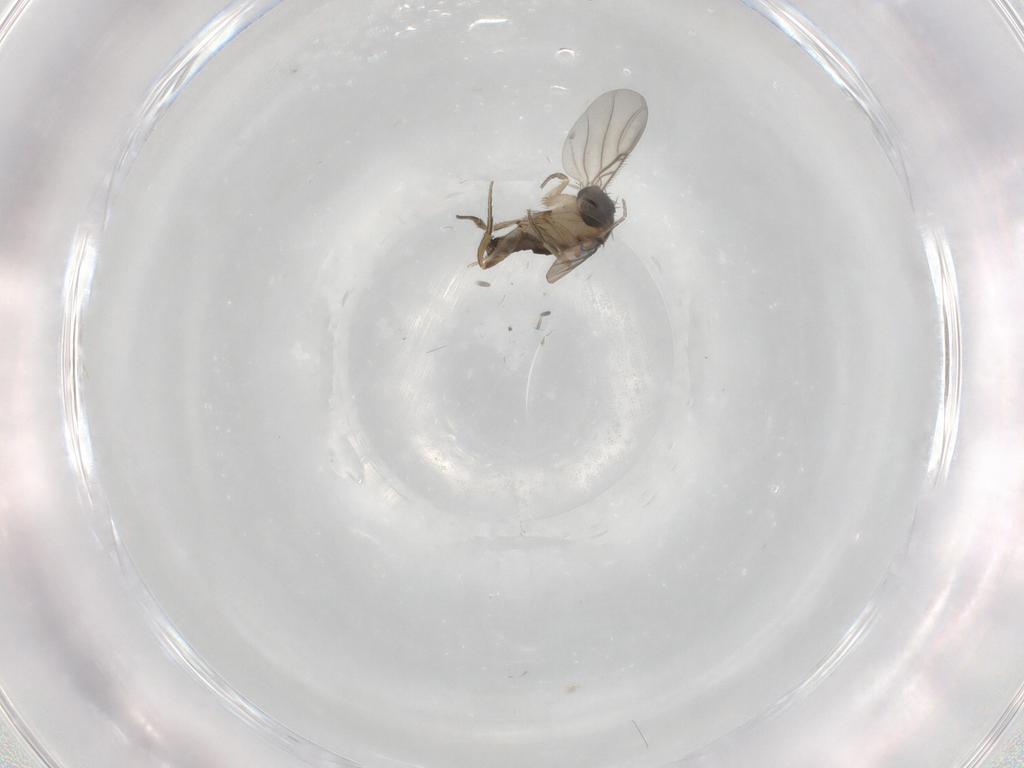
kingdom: Animalia
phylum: Arthropoda
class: Insecta
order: Diptera
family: Phoridae
